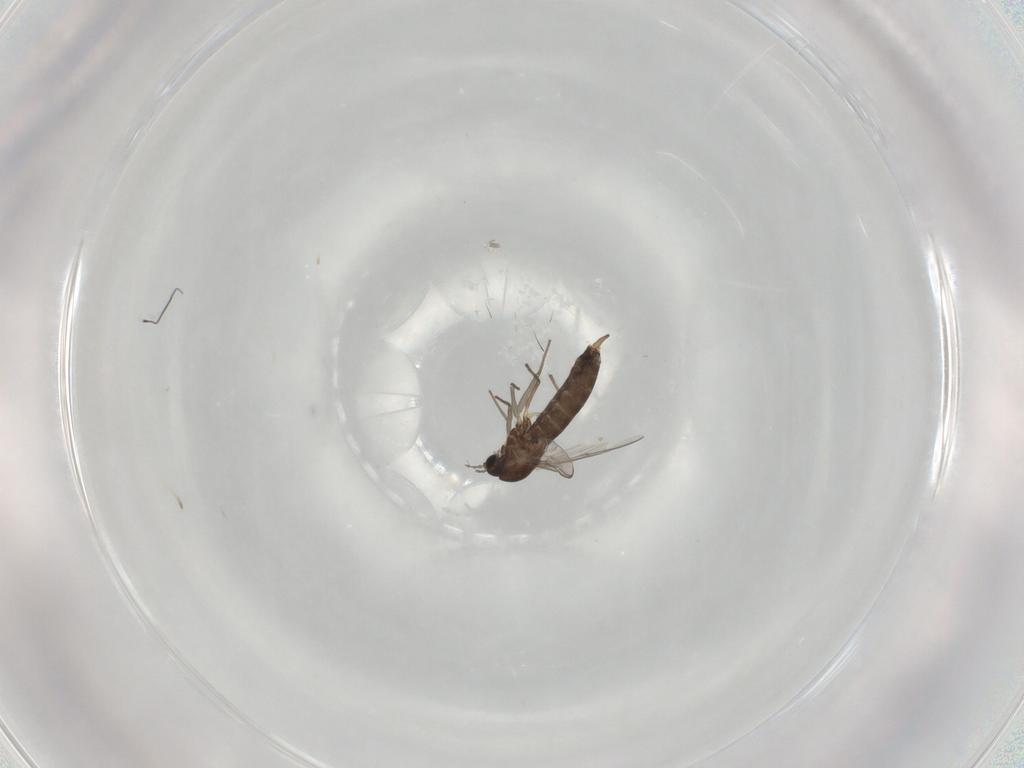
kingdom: Animalia
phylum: Arthropoda
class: Insecta
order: Diptera
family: Chironomidae
